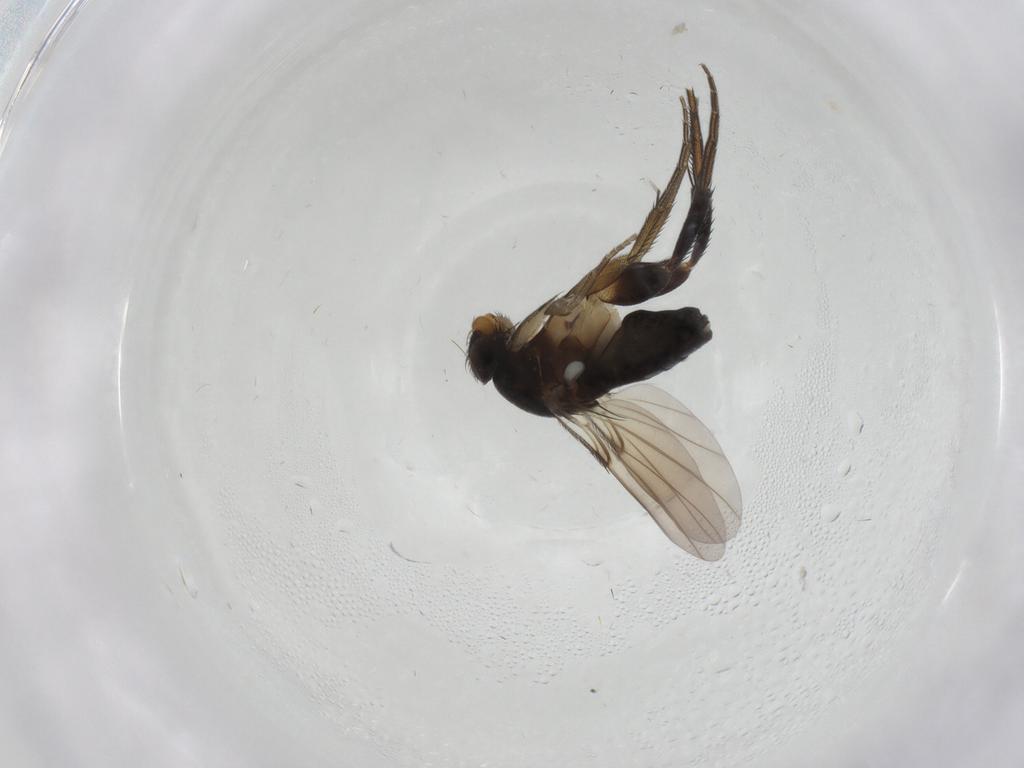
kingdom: Animalia
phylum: Arthropoda
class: Insecta
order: Diptera
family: Phoridae
